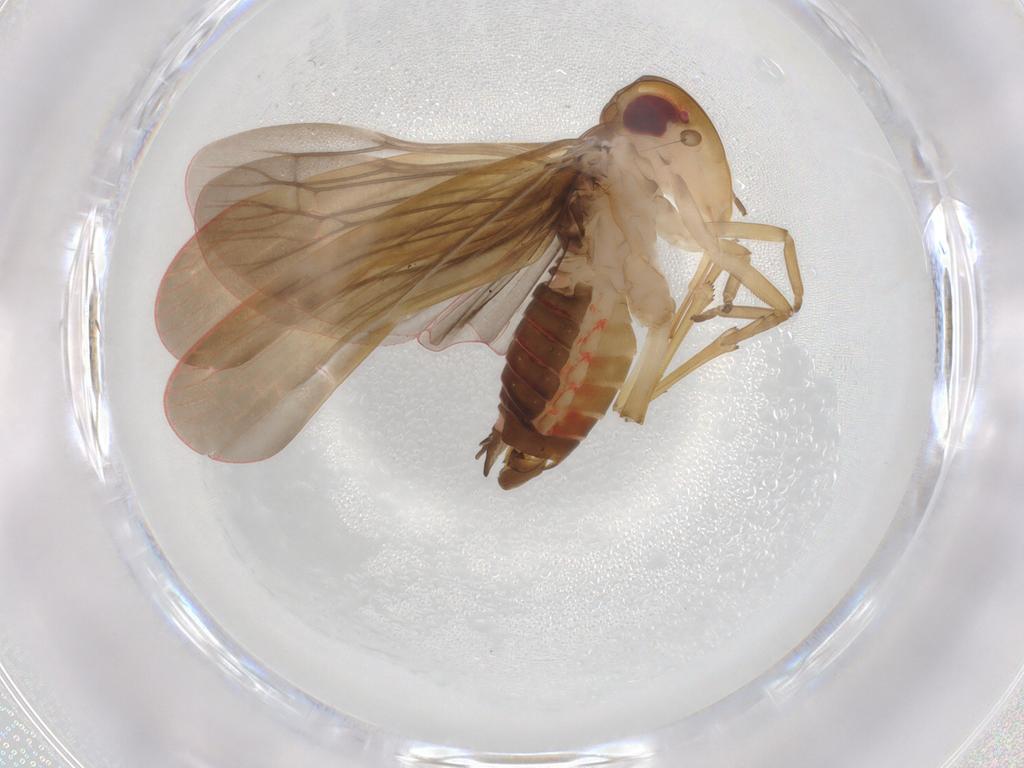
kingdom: Animalia
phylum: Arthropoda
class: Insecta
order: Hemiptera
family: Achilidae
